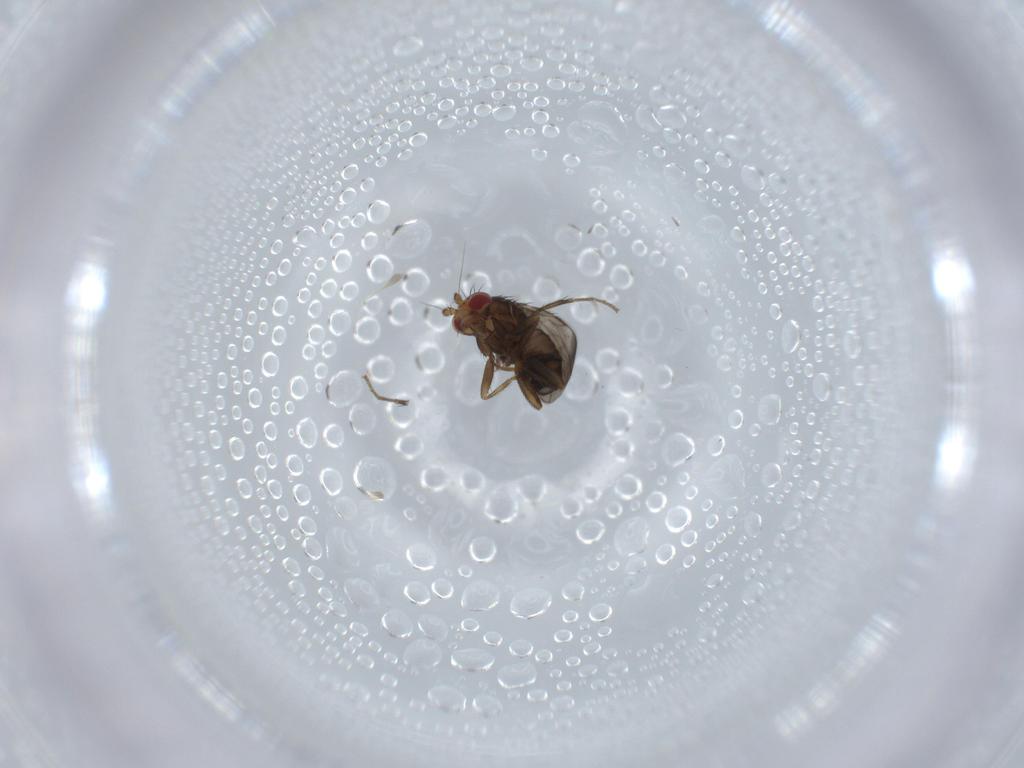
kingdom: Animalia
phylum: Arthropoda
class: Insecta
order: Diptera
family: Sphaeroceridae
